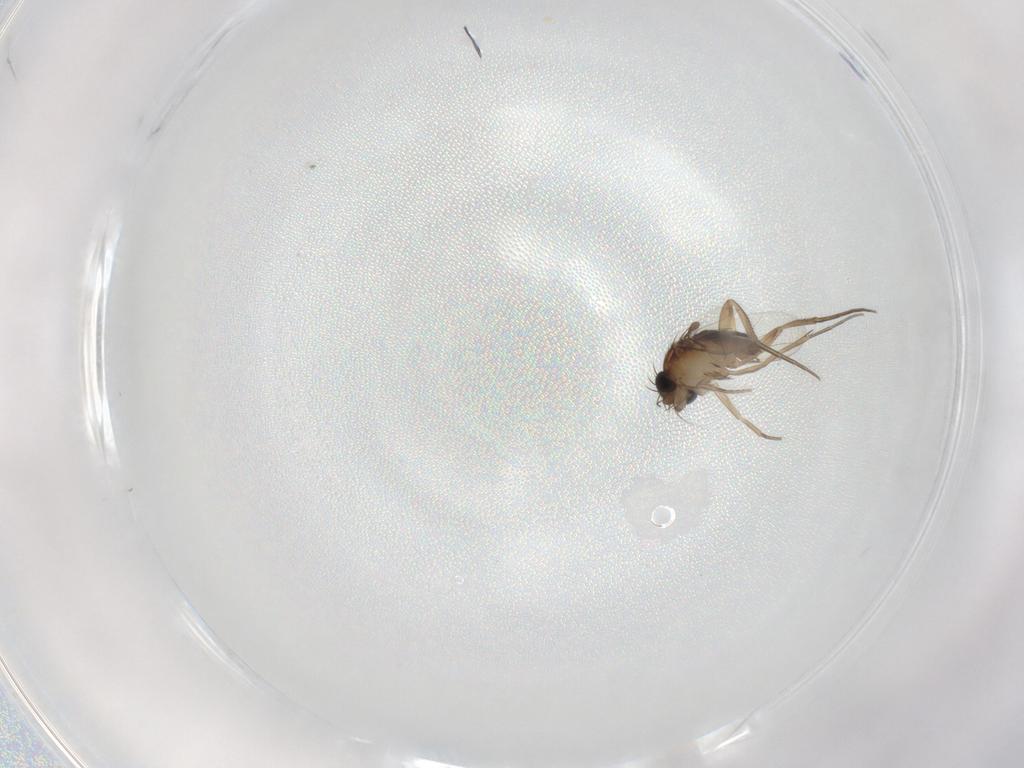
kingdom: Animalia
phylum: Arthropoda
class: Insecta
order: Diptera
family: Phoridae
